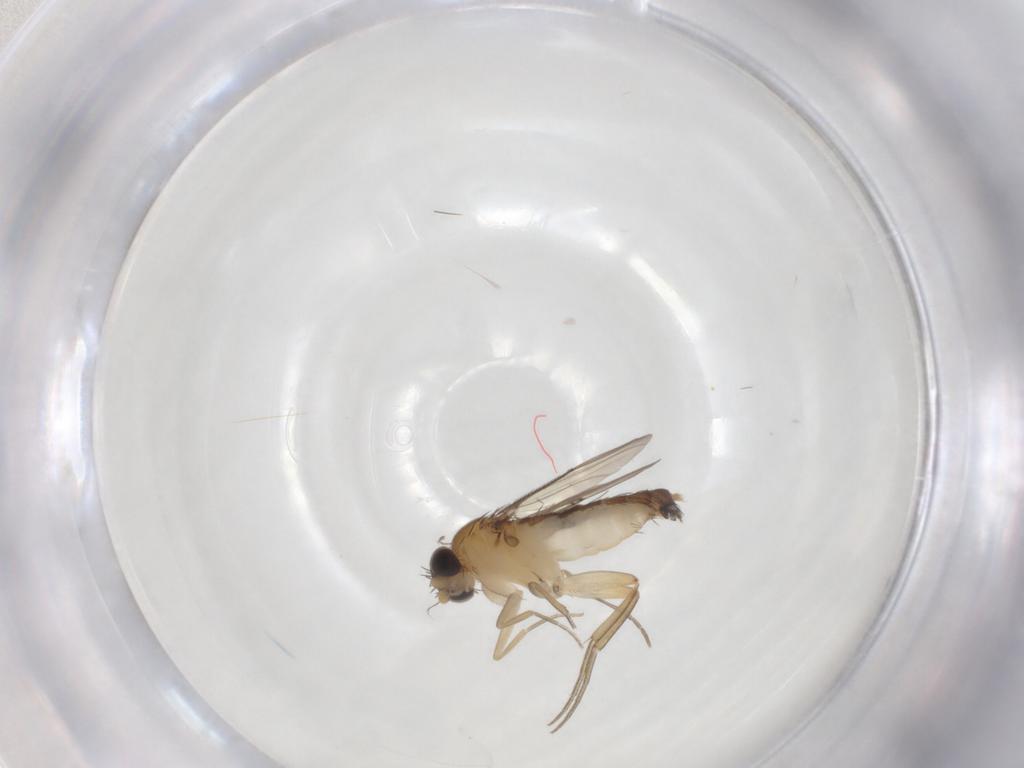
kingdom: Animalia
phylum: Arthropoda
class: Insecta
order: Diptera
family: Phoridae
